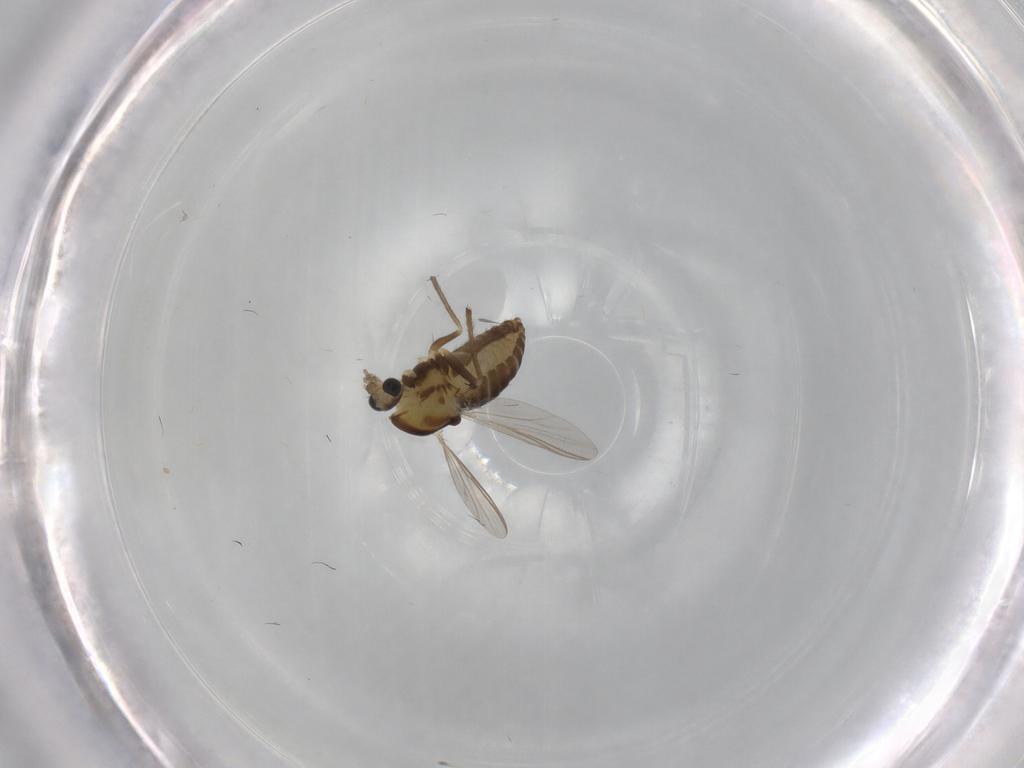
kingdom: Animalia
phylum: Arthropoda
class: Insecta
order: Diptera
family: Chironomidae
